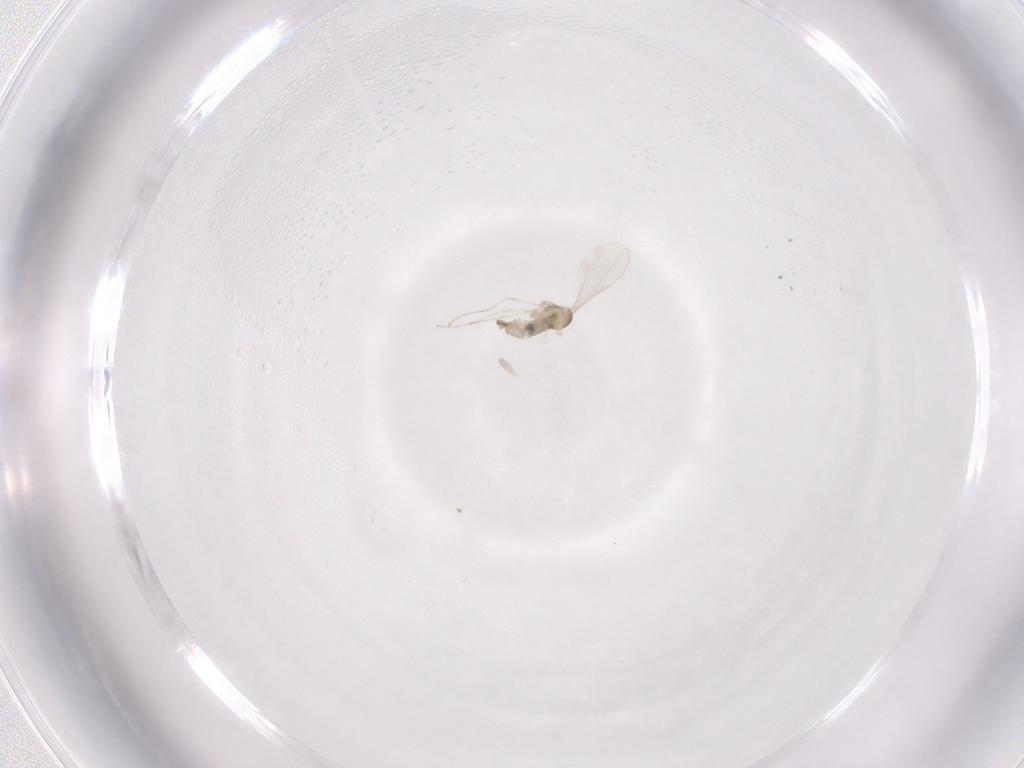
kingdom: Animalia
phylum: Arthropoda
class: Insecta
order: Diptera
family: Cecidomyiidae
